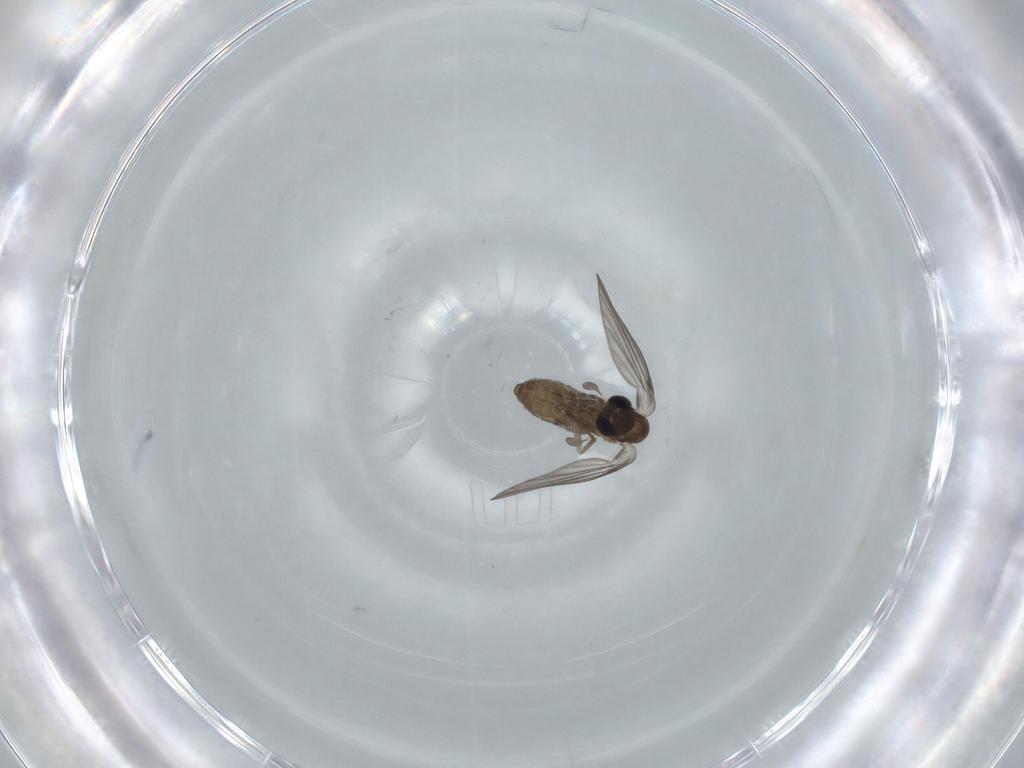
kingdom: Animalia
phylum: Arthropoda
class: Insecta
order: Diptera
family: Psychodidae
